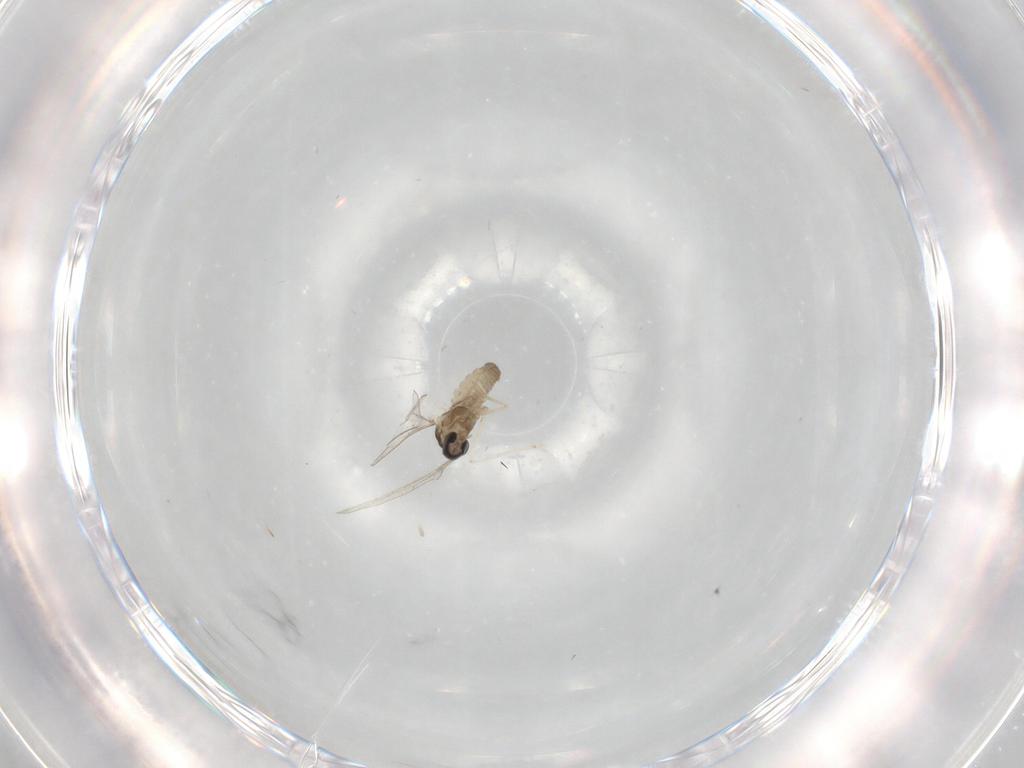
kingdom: Animalia
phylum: Arthropoda
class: Insecta
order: Diptera
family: Cecidomyiidae
